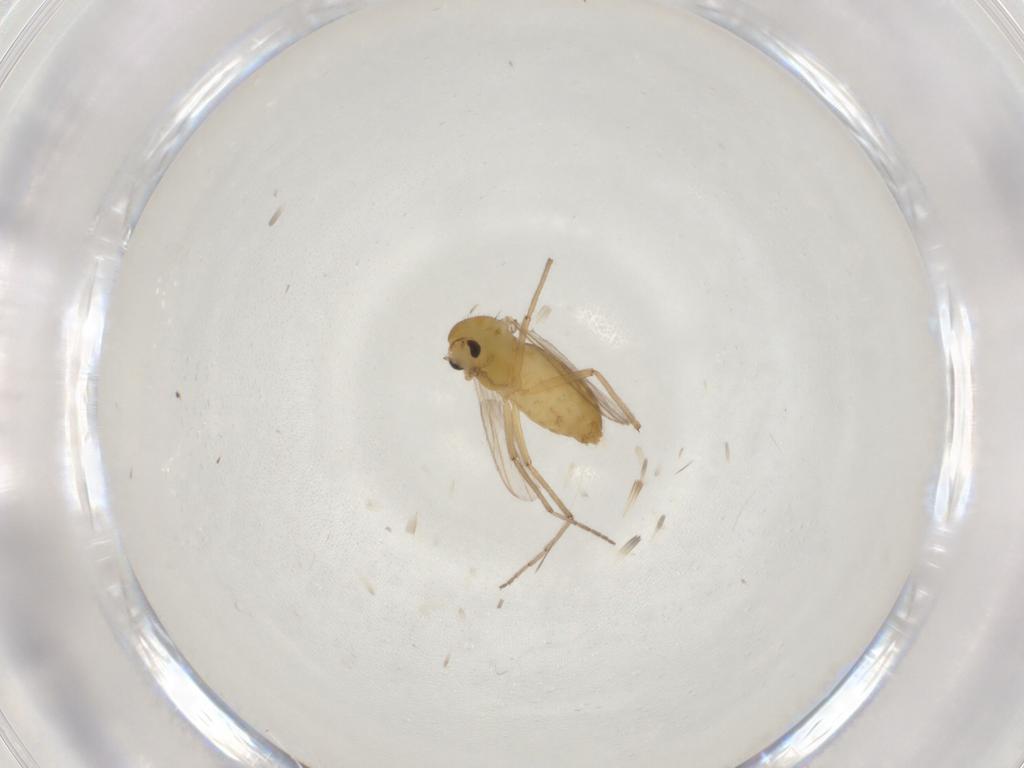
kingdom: Animalia
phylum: Arthropoda
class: Insecta
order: Diptera
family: Chironomidae
